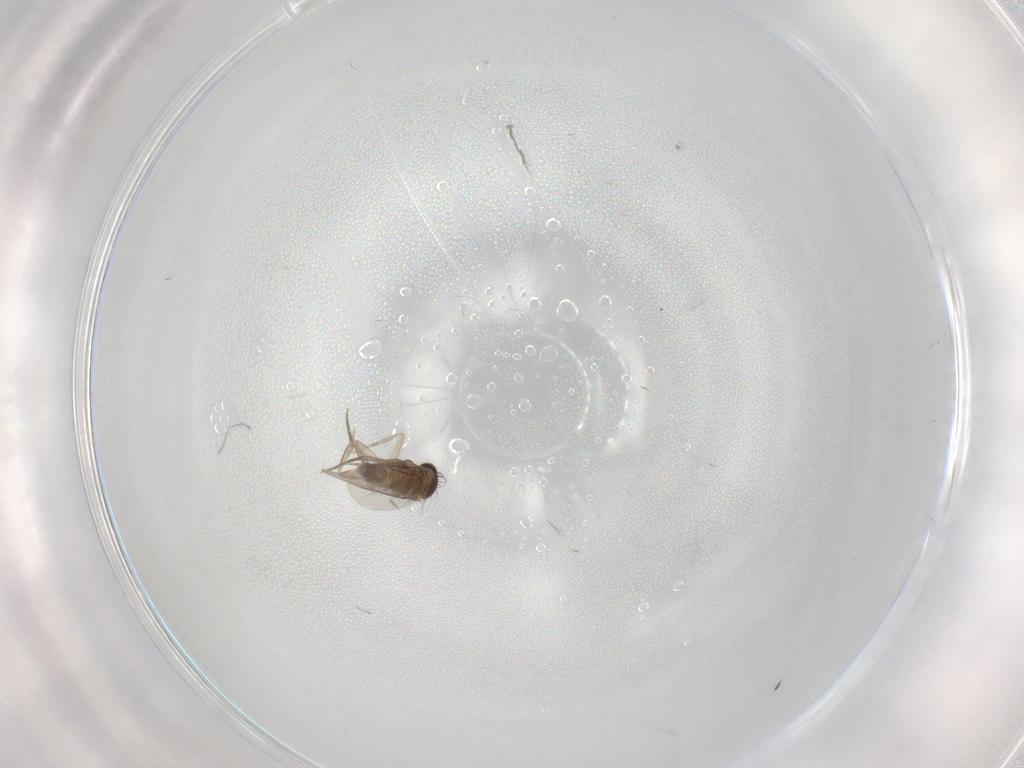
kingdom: Animalia
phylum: Arthropoda
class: Insecta
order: Diptera
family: Phoridae
